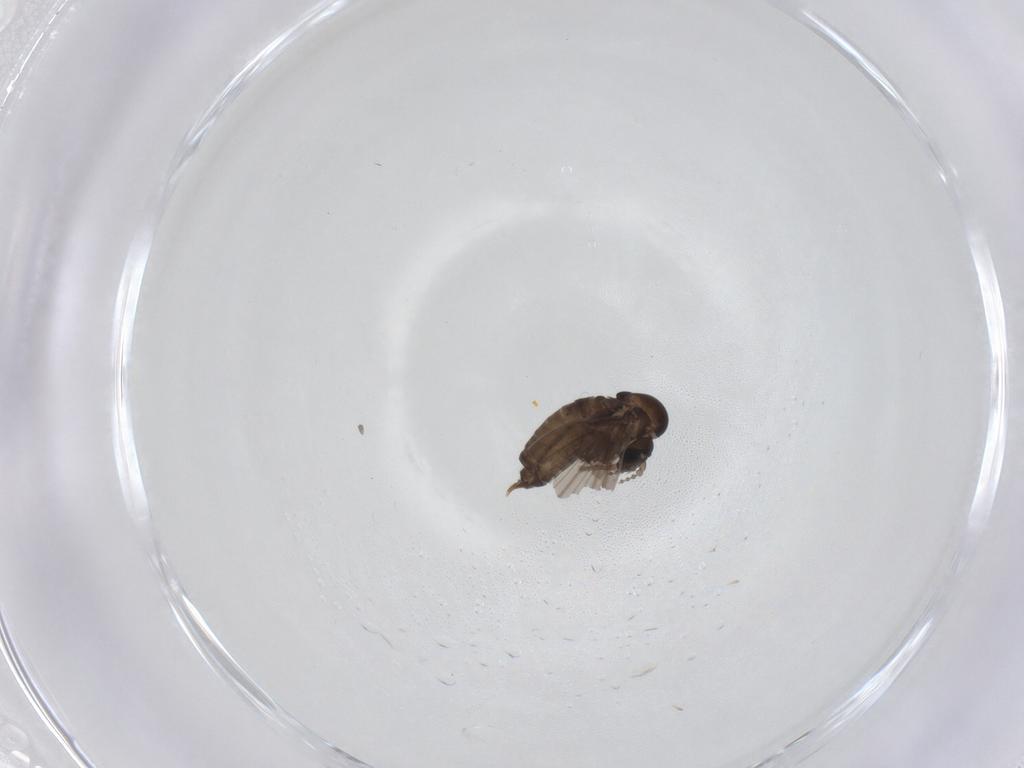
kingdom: Animalia
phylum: Arthropoda
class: Insecta
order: Diptera
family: Psychodidae
